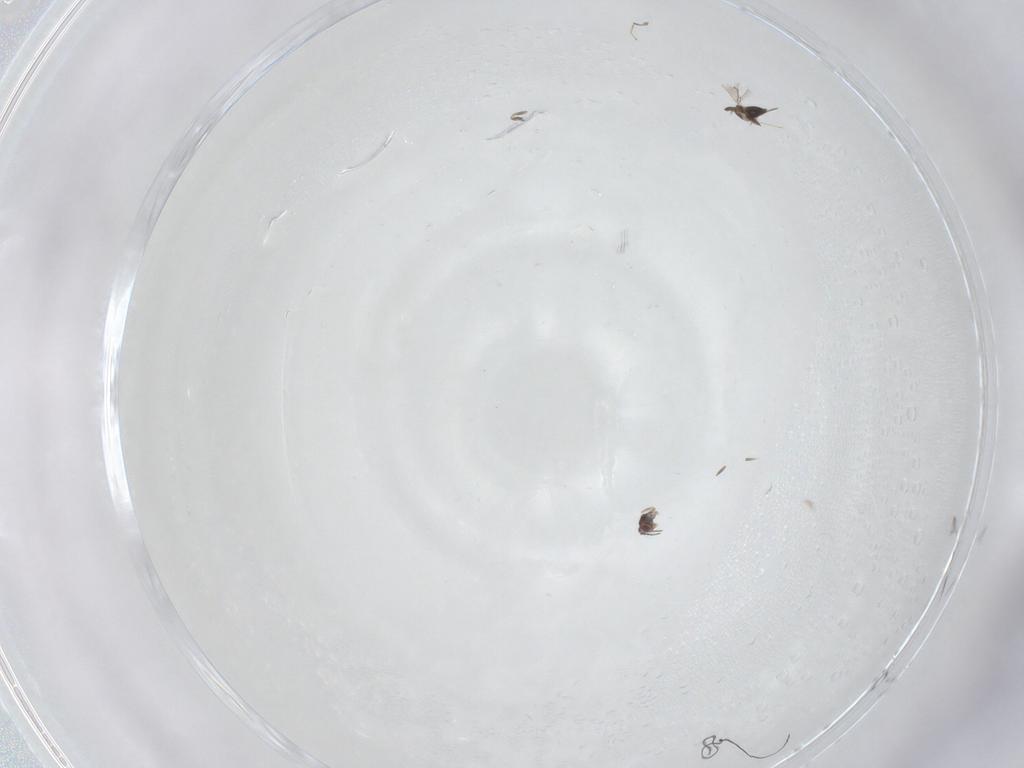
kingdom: Animalia
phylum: Arthropoda
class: Insecta
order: Hymenoptera
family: Trichogrammatidae
